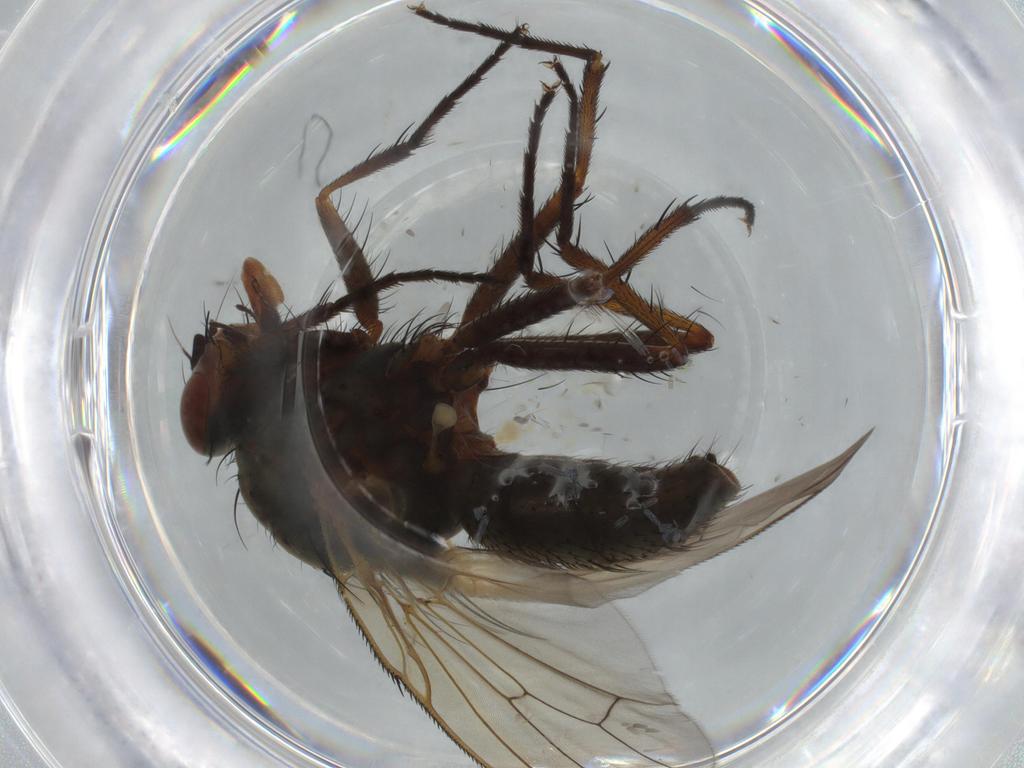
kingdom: Animalia
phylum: Arthropoda
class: Insecta
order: Diptera
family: Anthomyiidae
